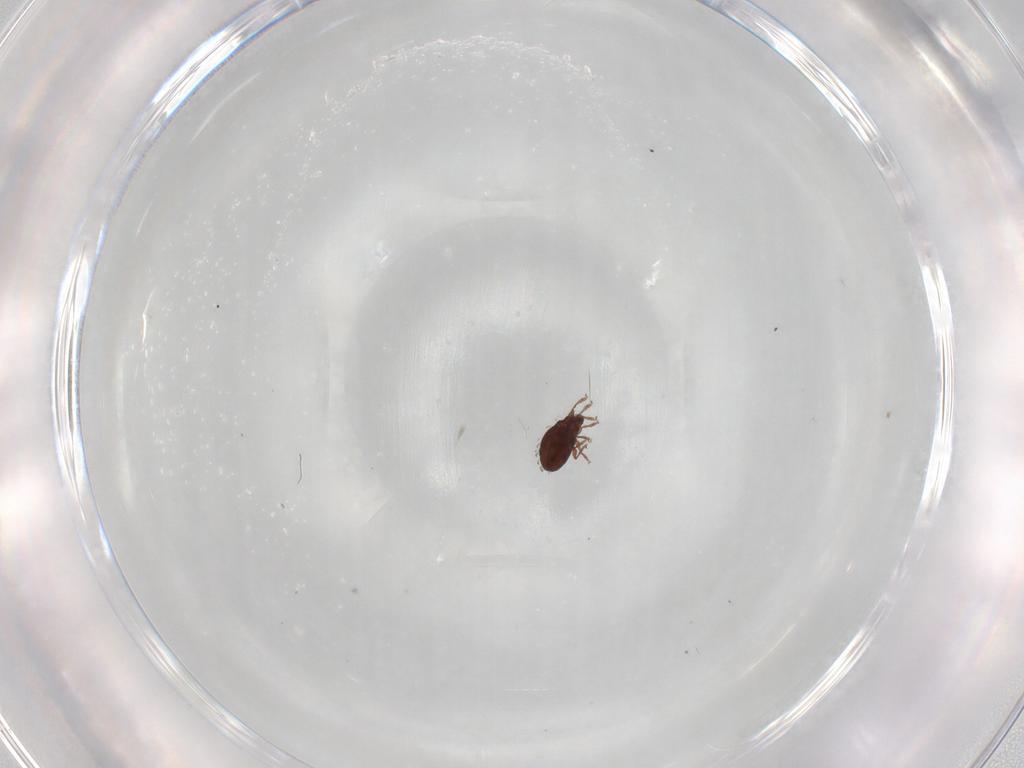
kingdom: Animalia
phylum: Arthropoda
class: Arachnida
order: Sarcoptiformes
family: Scheloribatidae
